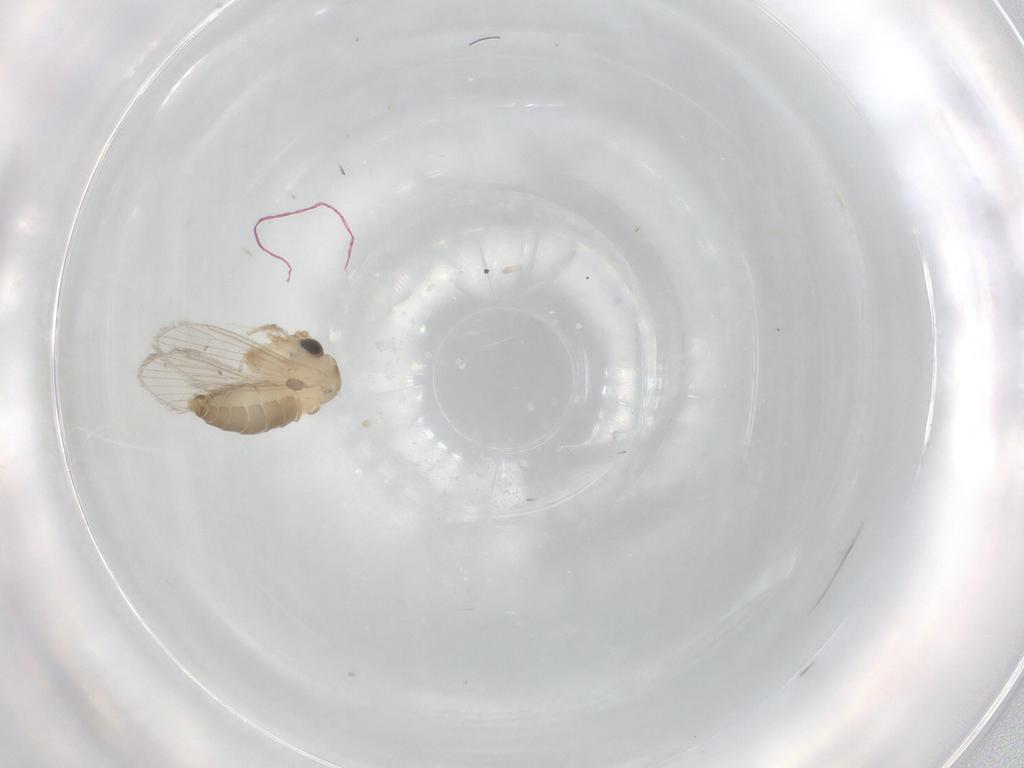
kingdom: Animalia
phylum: Arthropoda
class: Insecta
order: Diptera
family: Psychodidae
